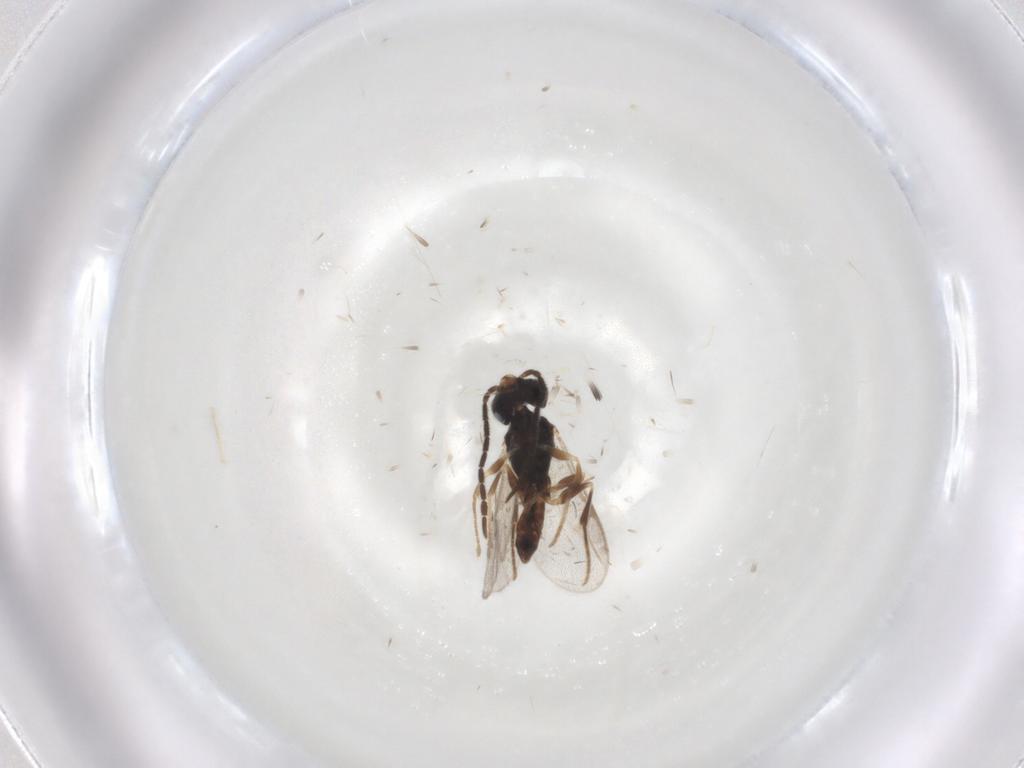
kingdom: Animalia
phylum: Arthropoda
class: Insecta
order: Hymenoptera
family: Dryinidae
